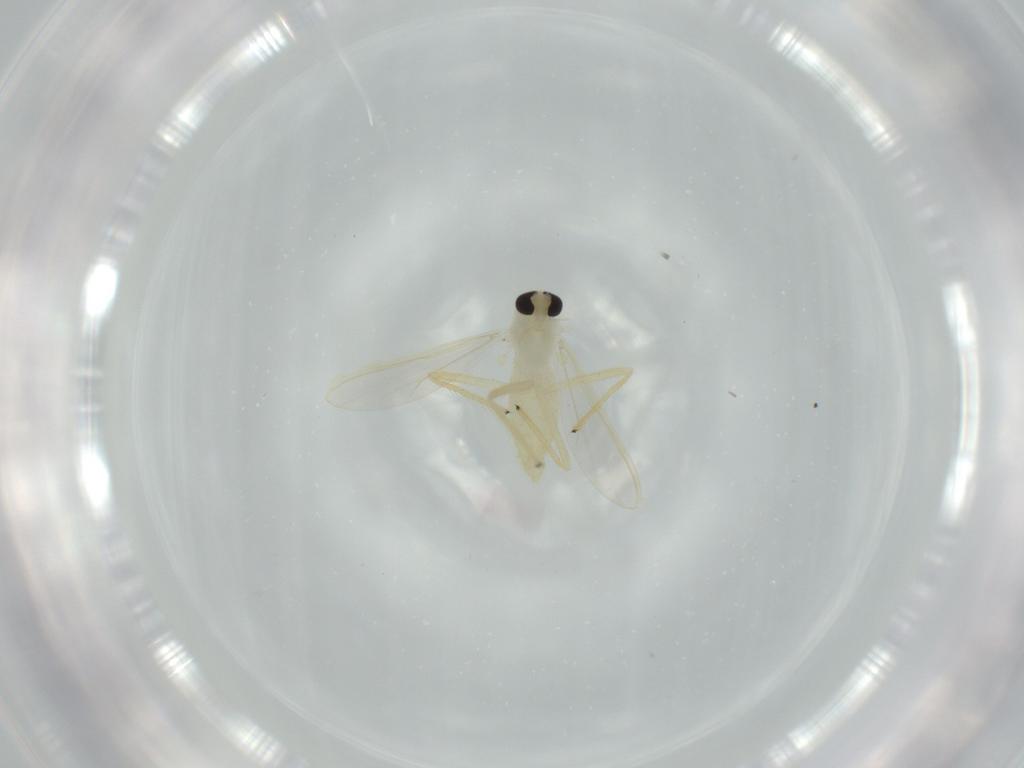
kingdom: Animalia
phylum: Arthropoda
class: Insecta
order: Diptera
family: Chironomidae
